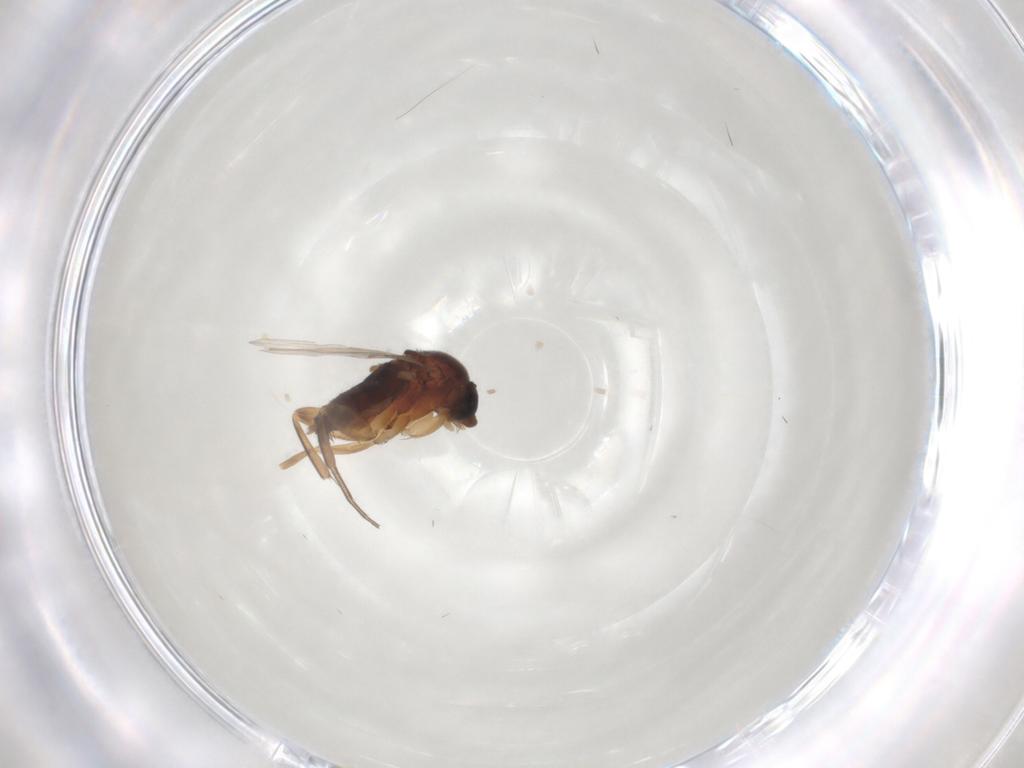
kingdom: Animalia
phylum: Arthropoda
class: Insecta
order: Diptera
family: Phoridae
